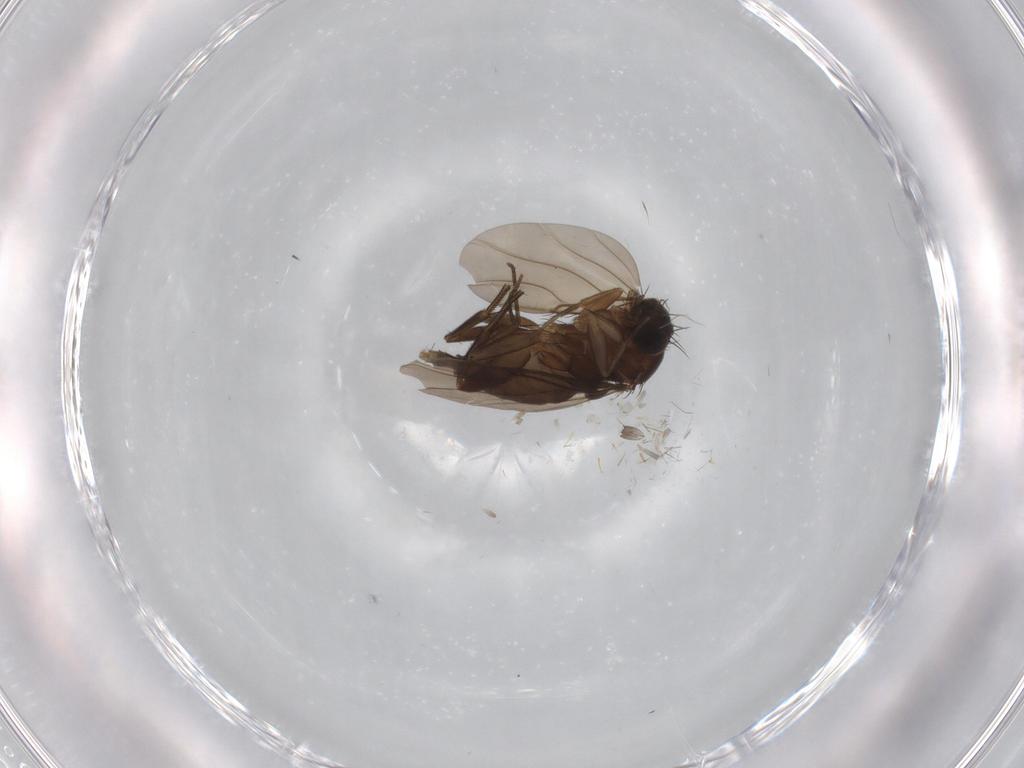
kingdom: Animalia
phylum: Arthropoda
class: Insecta
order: Diptera
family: Phoridae
